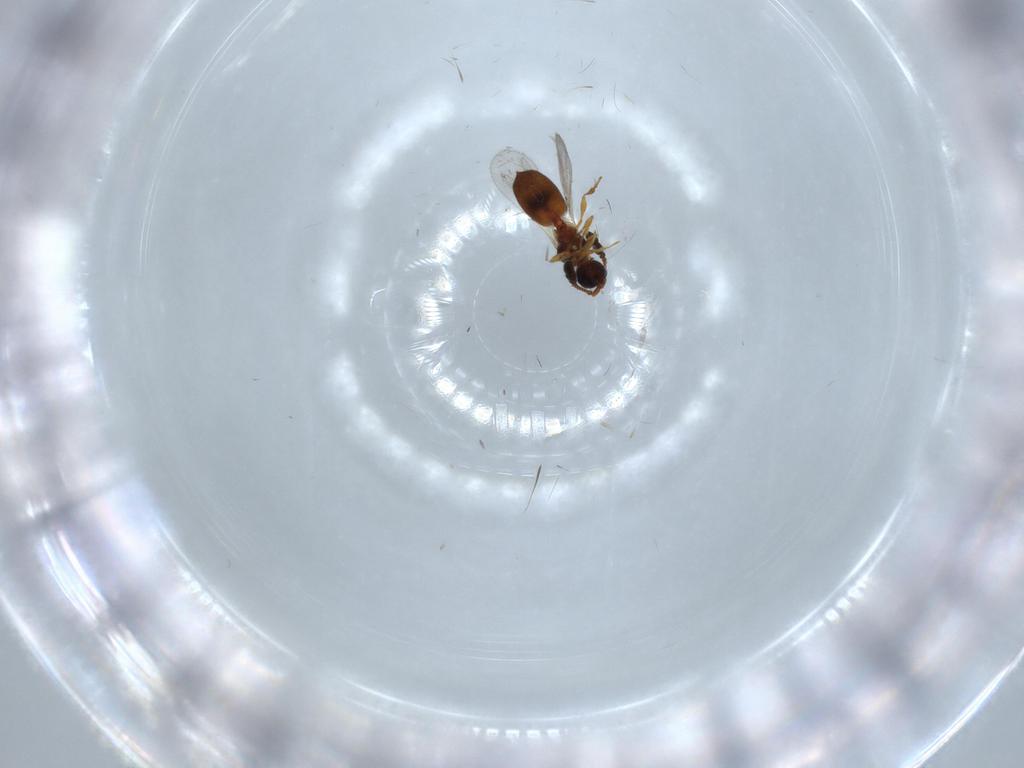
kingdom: Animalia
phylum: Arthropoda
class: Insecta
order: Hymenoptera
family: Diapriidae
